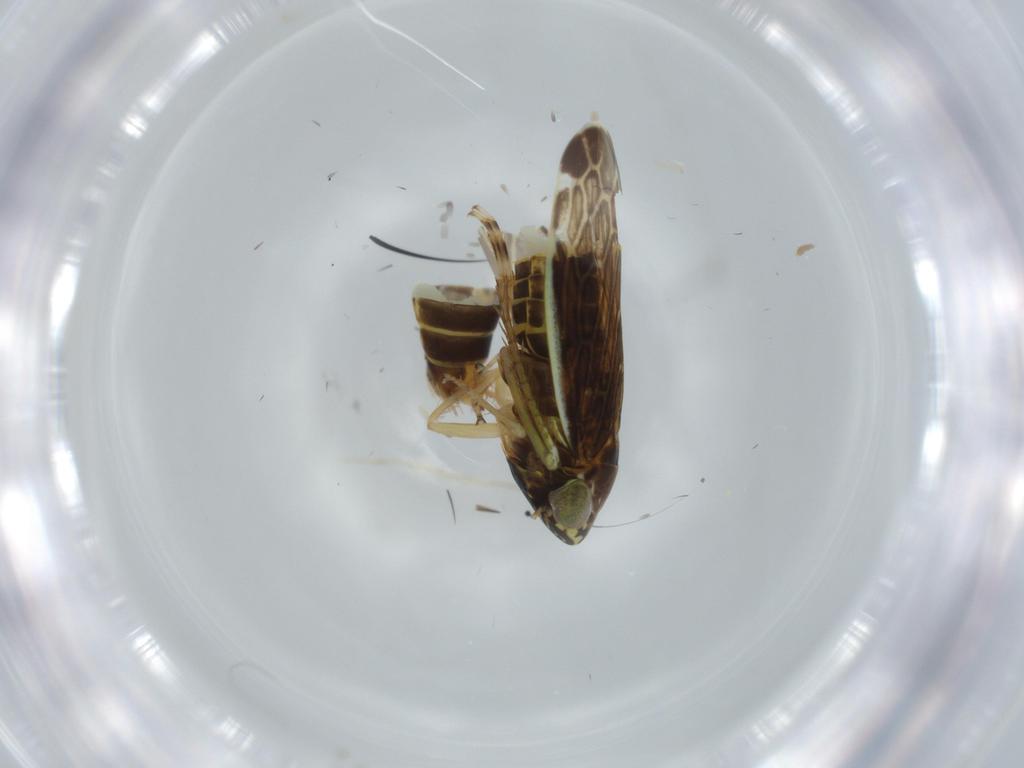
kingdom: Animalia
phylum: Arthropoda
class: Insecta
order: Hemiptera
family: Cicadellidae
